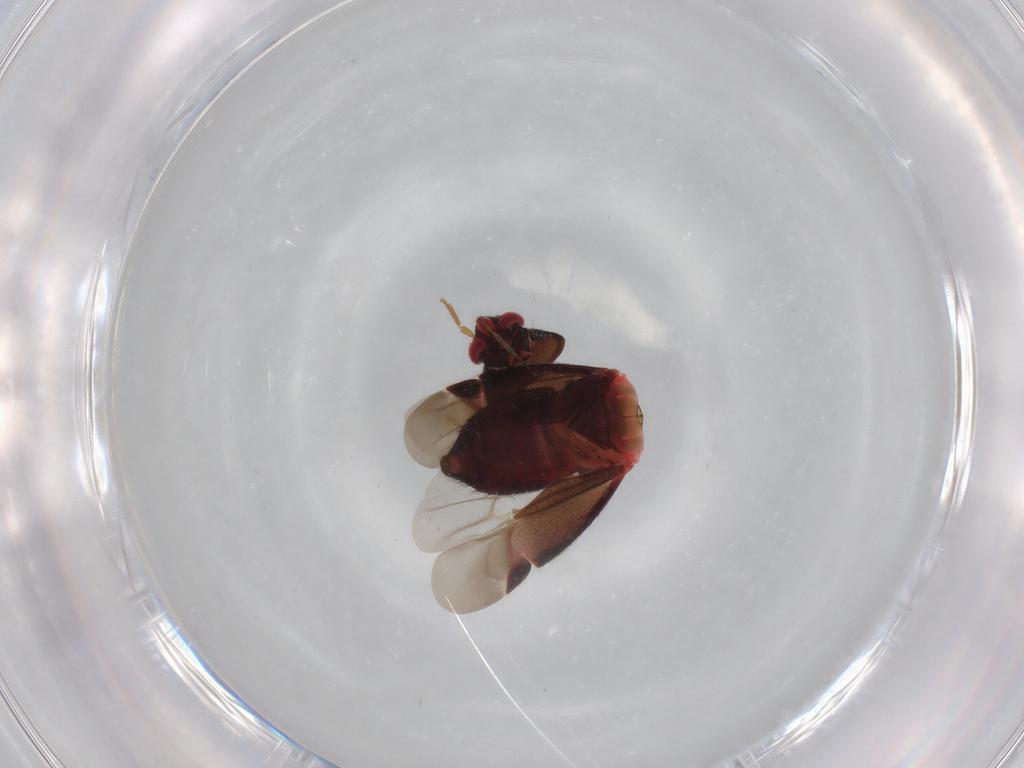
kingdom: Animalia
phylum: Arthropoda
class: Insecta
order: Hemiptera
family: Miridae
